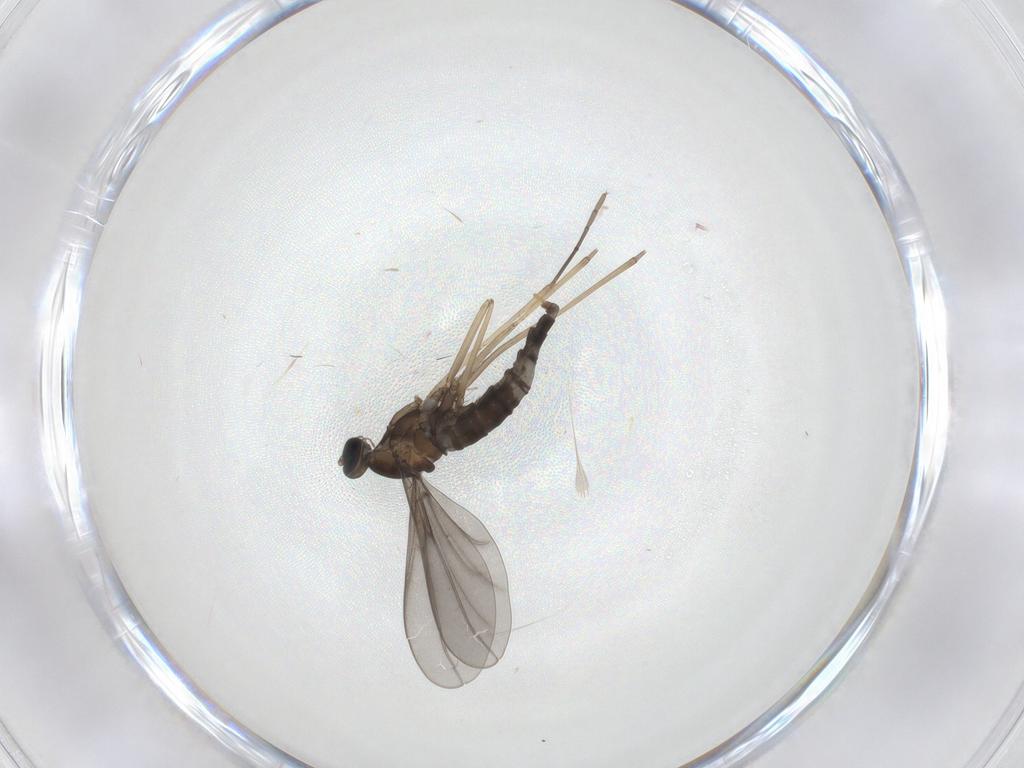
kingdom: Animalia
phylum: Arthropoda
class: Insecta
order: Diptera
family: Cecidomyiidae
